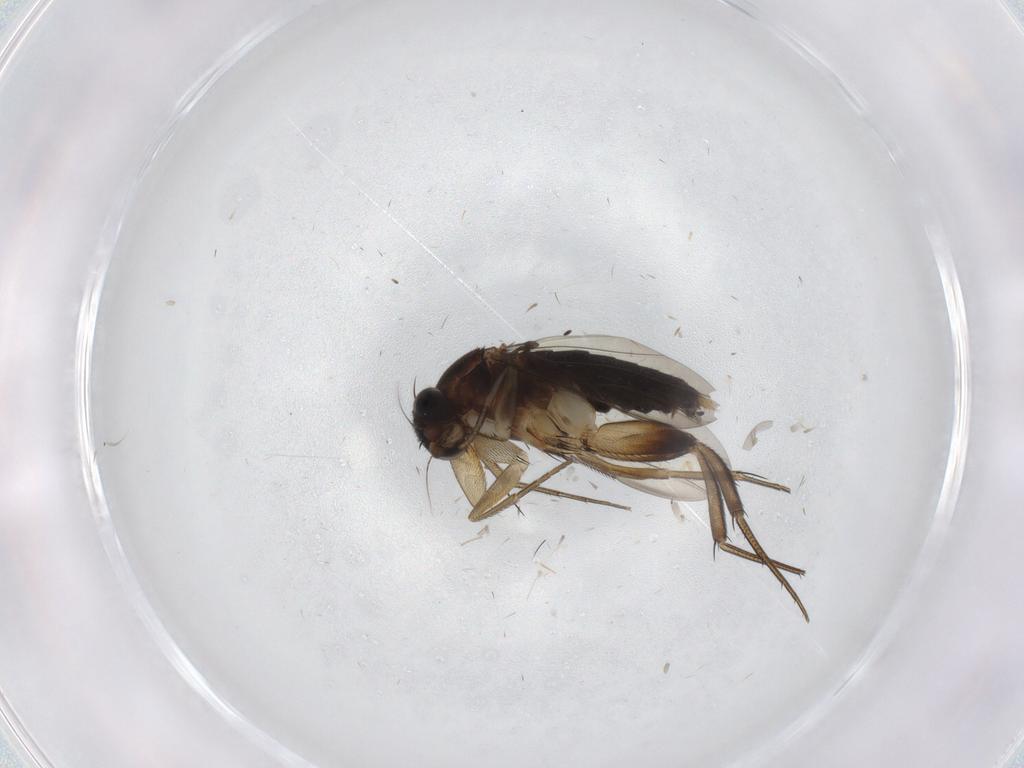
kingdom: Animalia
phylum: Arthropoda
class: Insecta
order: Diptera
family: Phoridae
